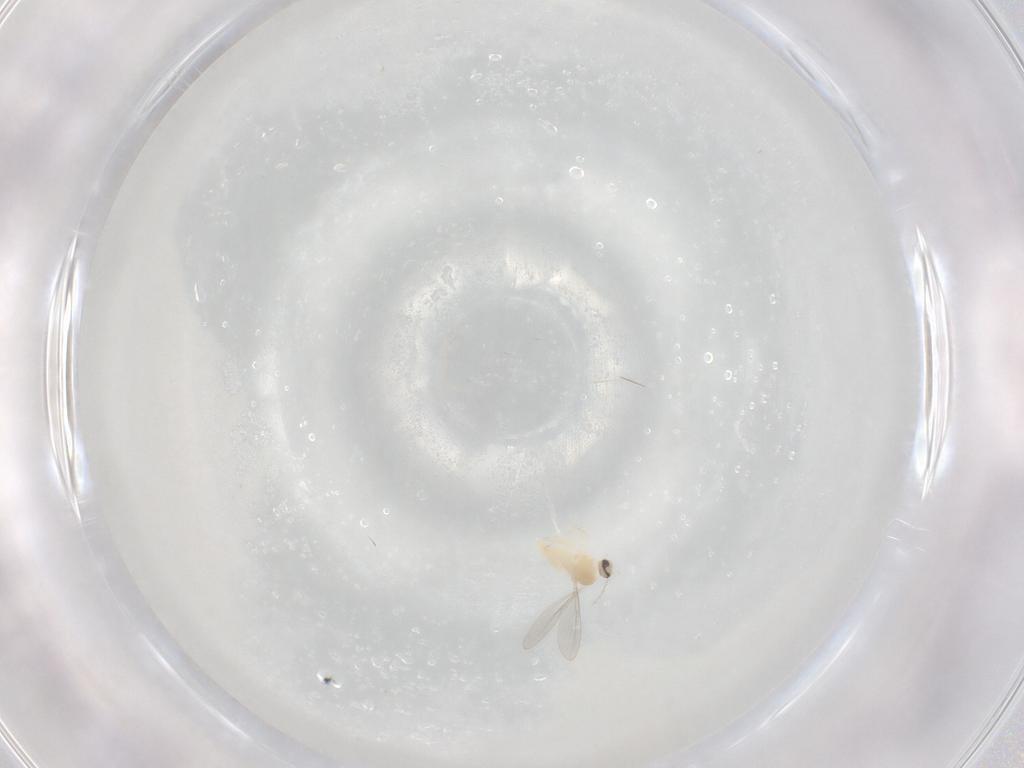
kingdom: Animalia
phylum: Arthropoda
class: Insecta
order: Diptera
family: Cecidomyiidae
